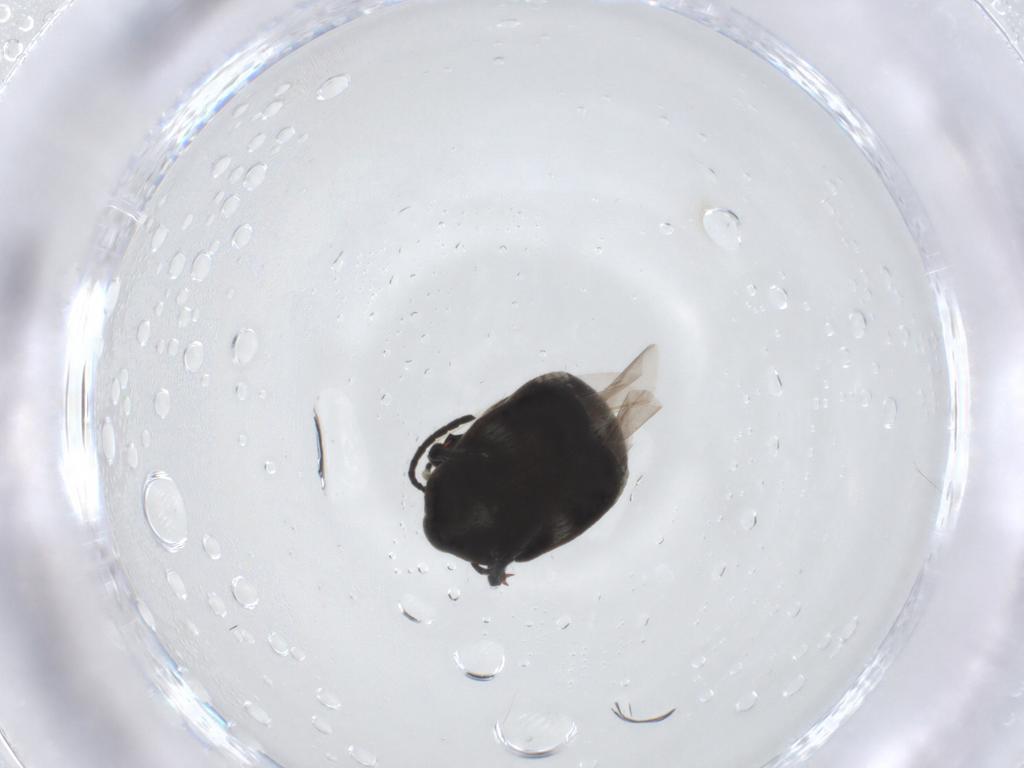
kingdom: Animalia
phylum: Arthropoda
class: Insecta
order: Coleoptera
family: Chrysomelidae
